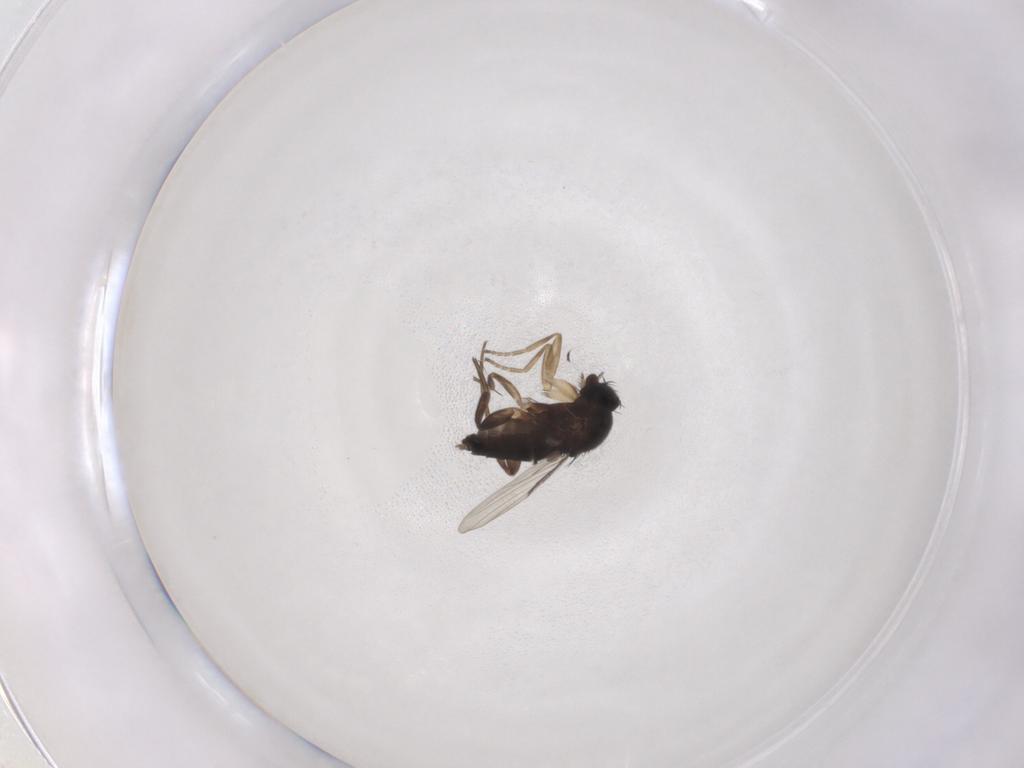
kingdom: Animalia
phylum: Arthropoda
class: Insecta
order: Diptera
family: Phoridae
